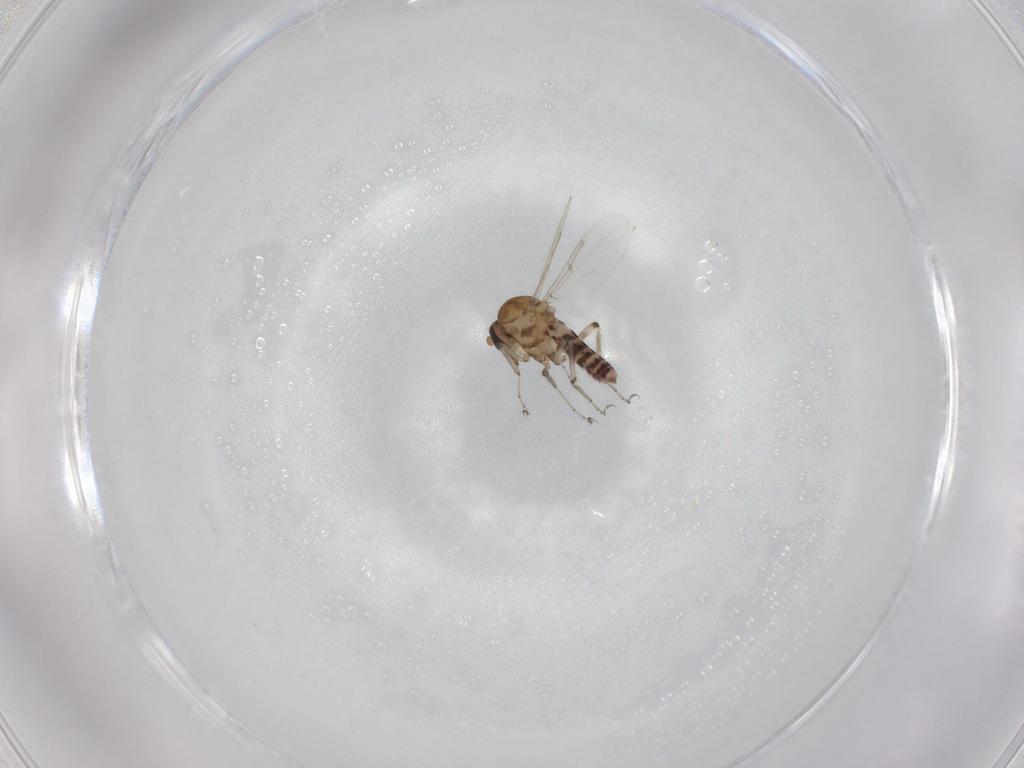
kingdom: Animalia
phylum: Arthropoda
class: Insecta
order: Diptera
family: Ceratopogonidae
